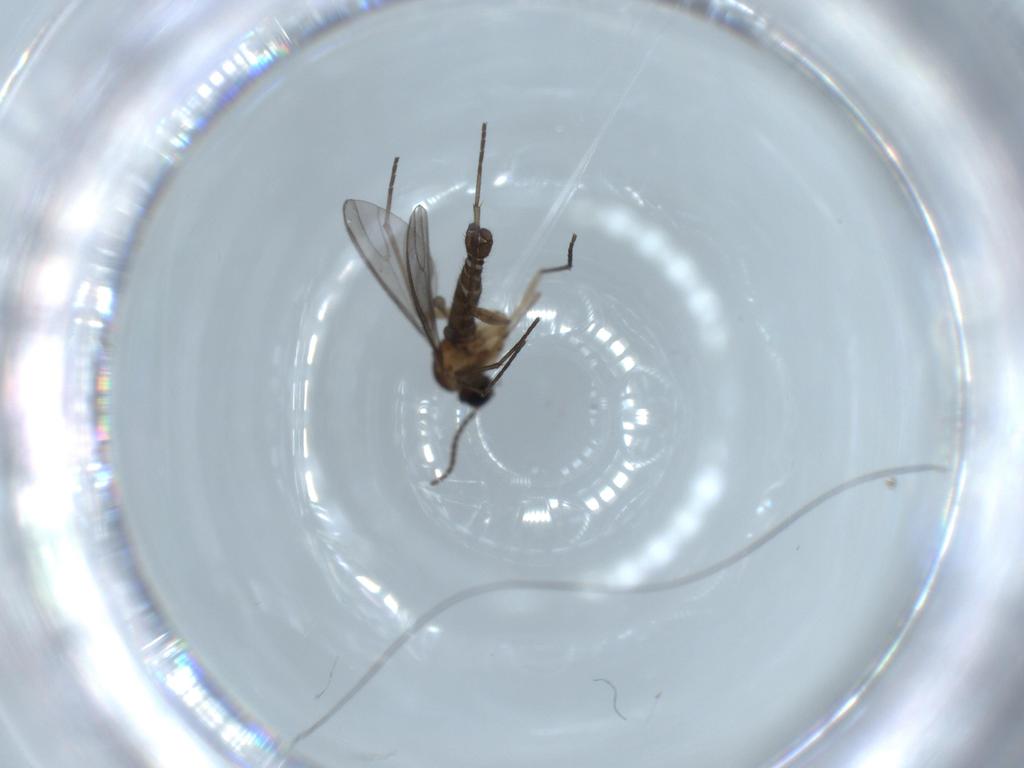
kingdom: Animalia
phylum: Arthropoda
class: Insecta
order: Diptera
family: Sciaridae
